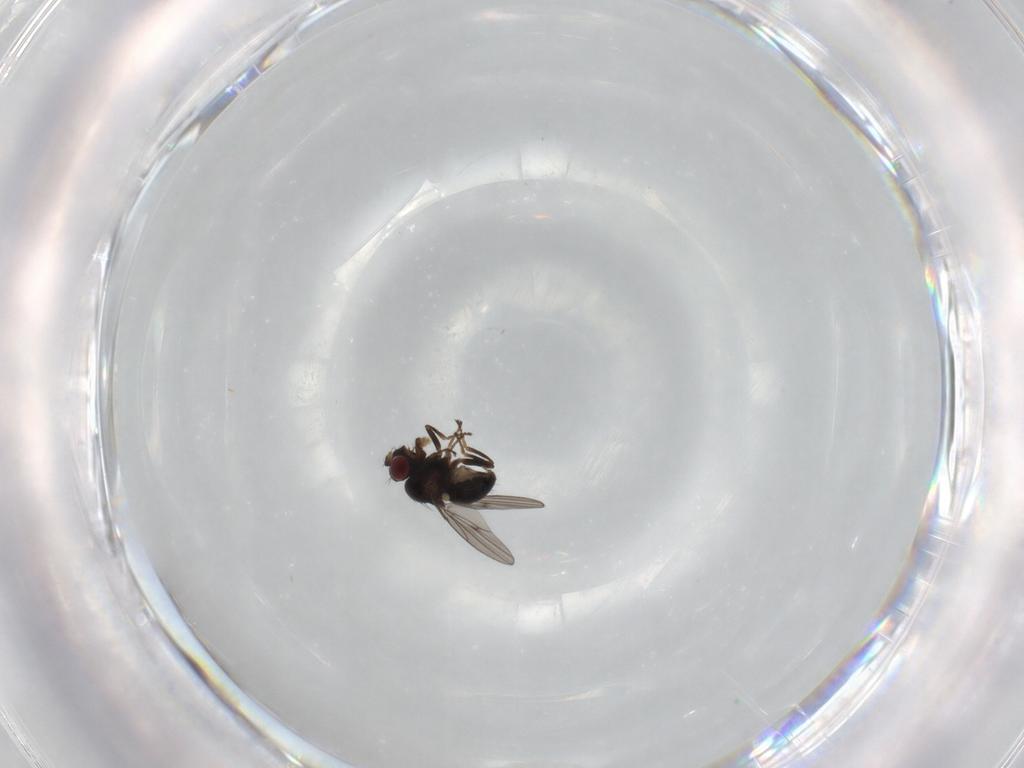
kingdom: Animalia
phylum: Arthropoda
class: Insecta
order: Diptera
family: Ephydridae
